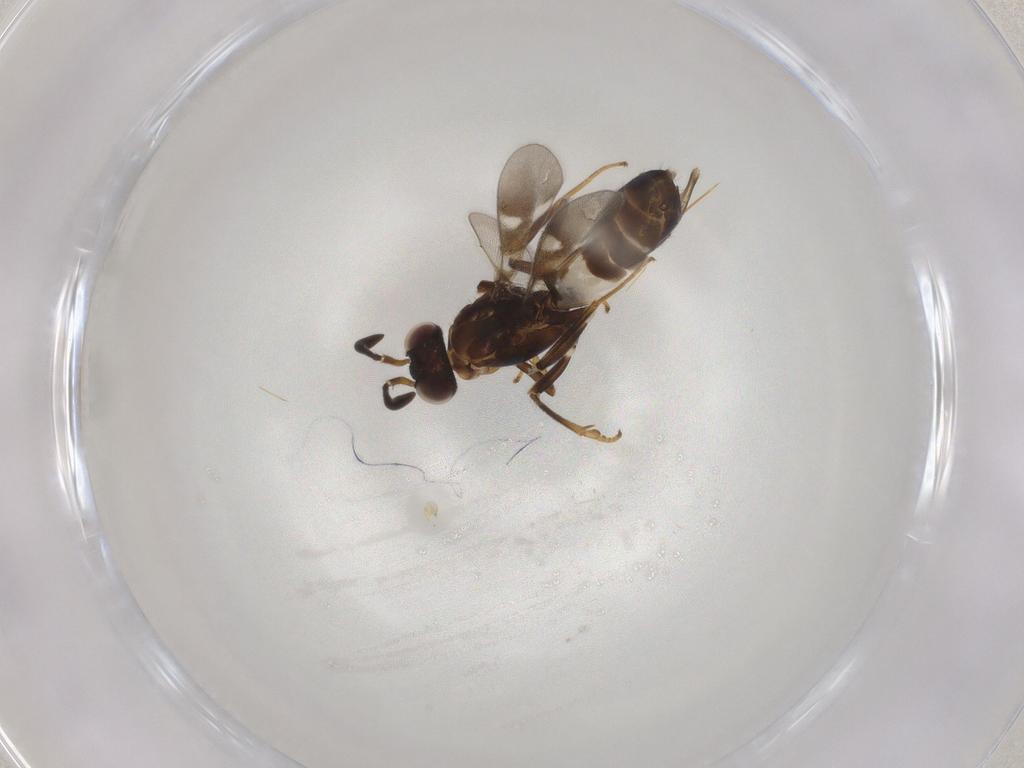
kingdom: Animalia
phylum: Arthropoda
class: Insecta
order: Hymenoptera
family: Eupelmidae
